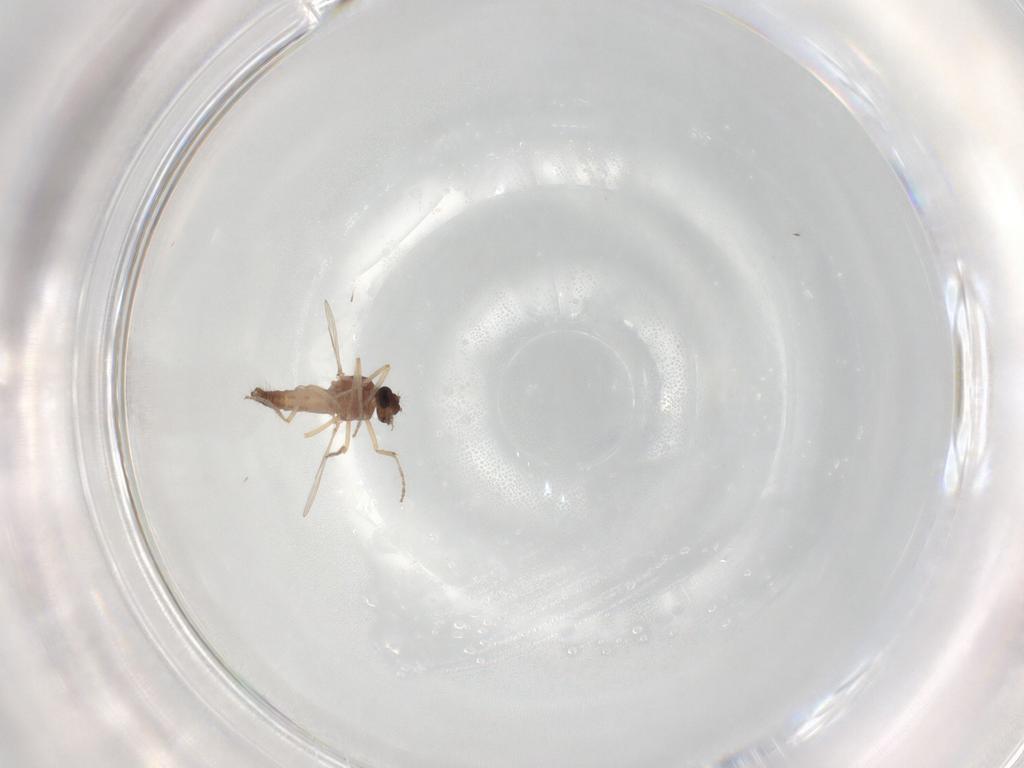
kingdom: Animalia
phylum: Arthropoda
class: Insecta
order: Diptera
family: Ceratopogonidae
